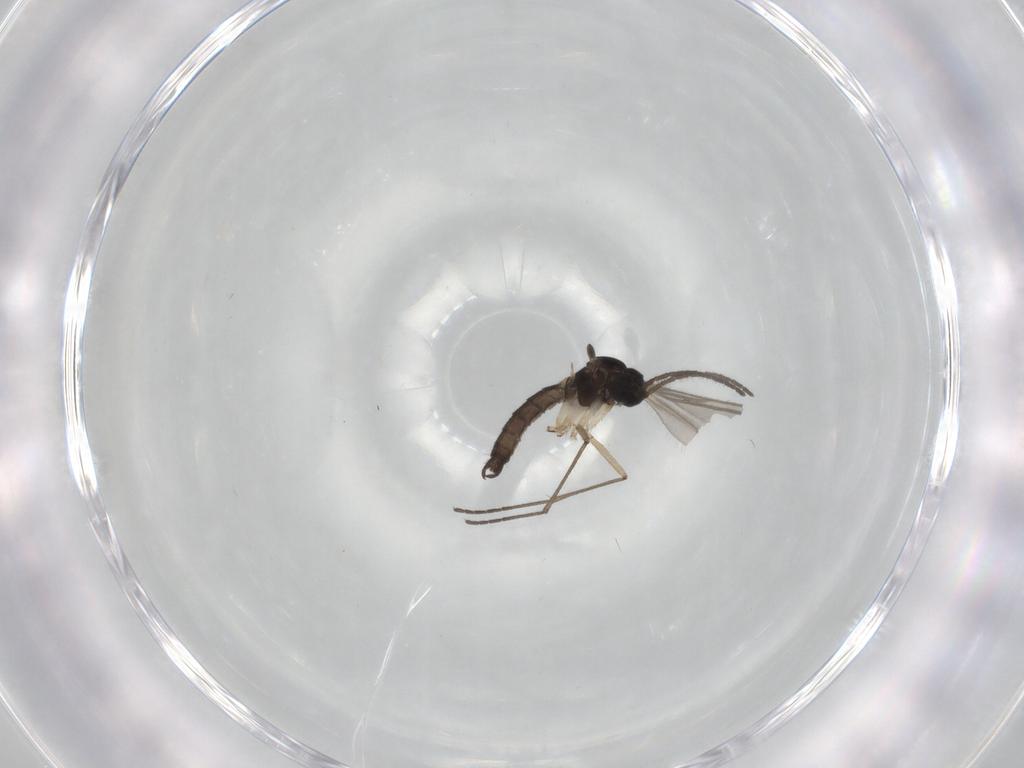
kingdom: Animalia
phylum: Arthropoda
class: Insecta
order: Diptera
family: Sciaridae
